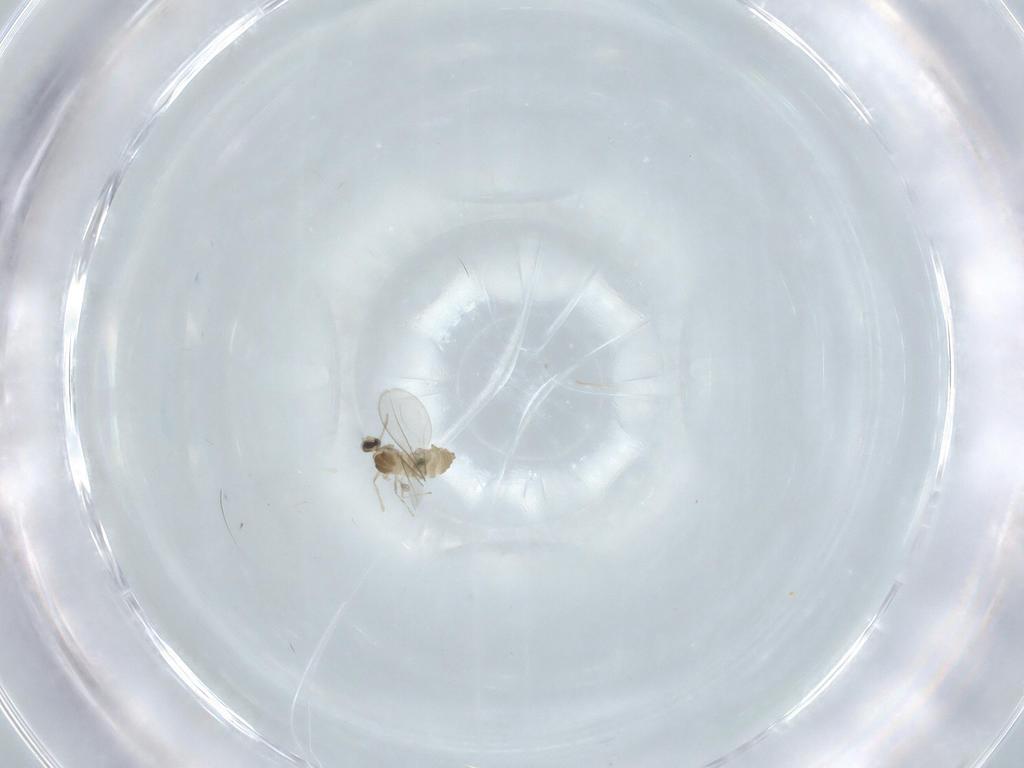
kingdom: Animalia
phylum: Arthropoda
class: Insecta
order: Diptera
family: Cecidomyiidae
